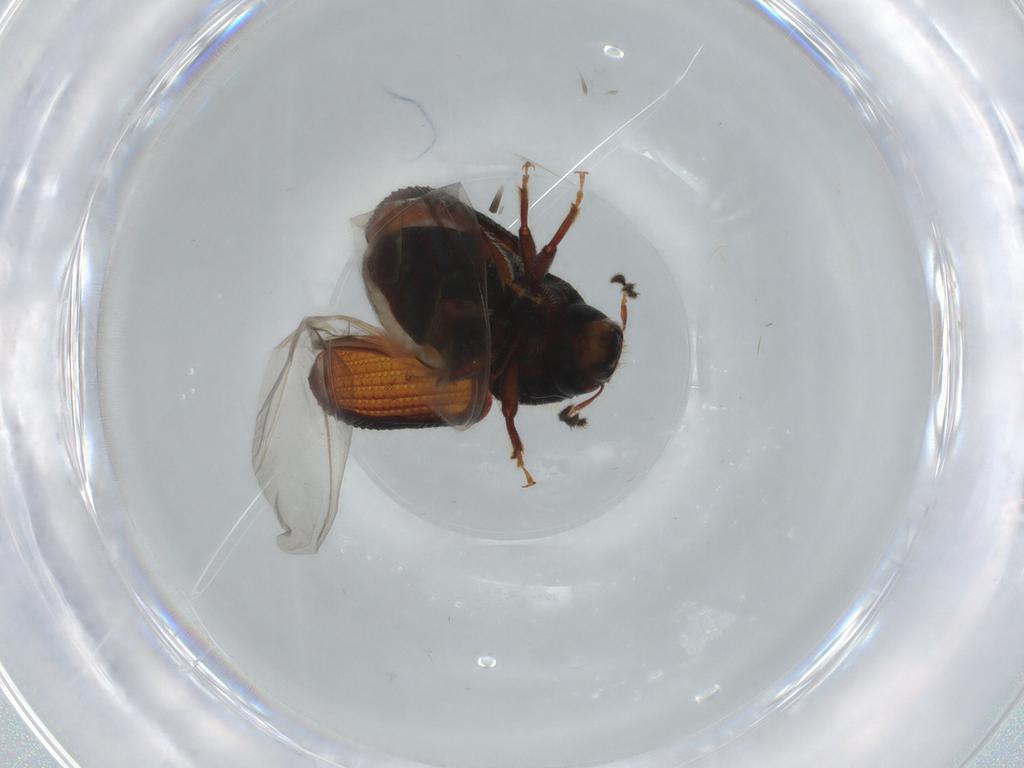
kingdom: Animalia
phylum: Arthropoda
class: Insecta
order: Coleoptera
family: Curculionidae
